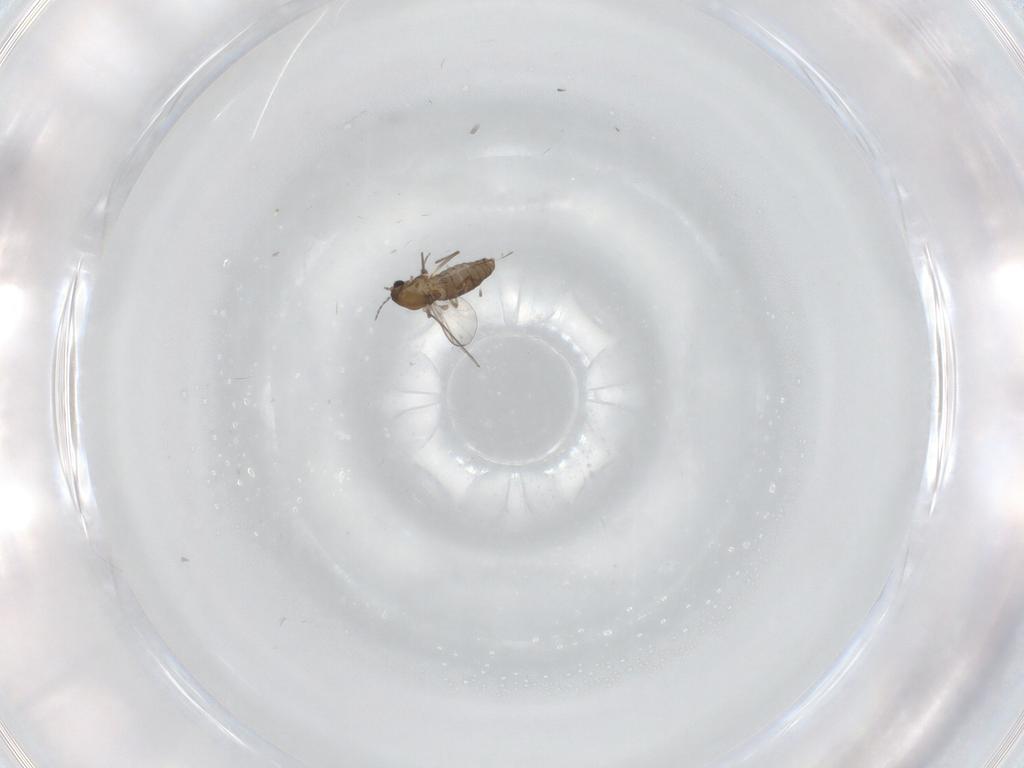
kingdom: Animalia
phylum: Arthropoda
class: Insecta
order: Diptera
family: Chironomidae
